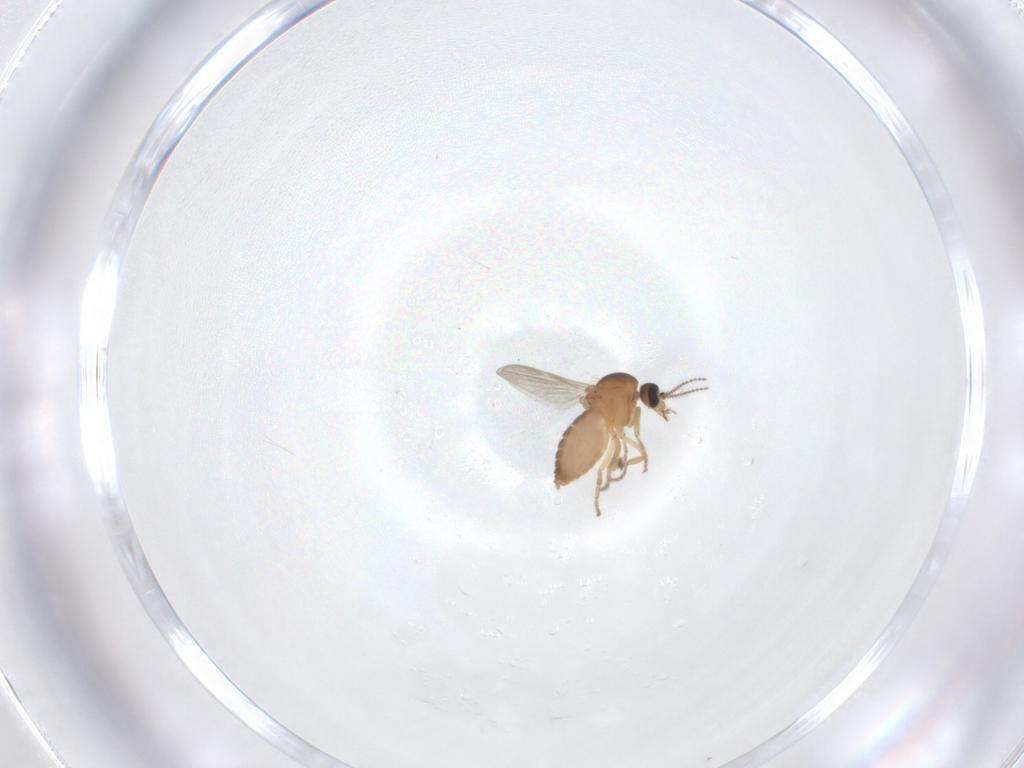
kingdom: Animalia
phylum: Arthropoda
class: Insecta
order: Diptera
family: Ceratopogonidae
